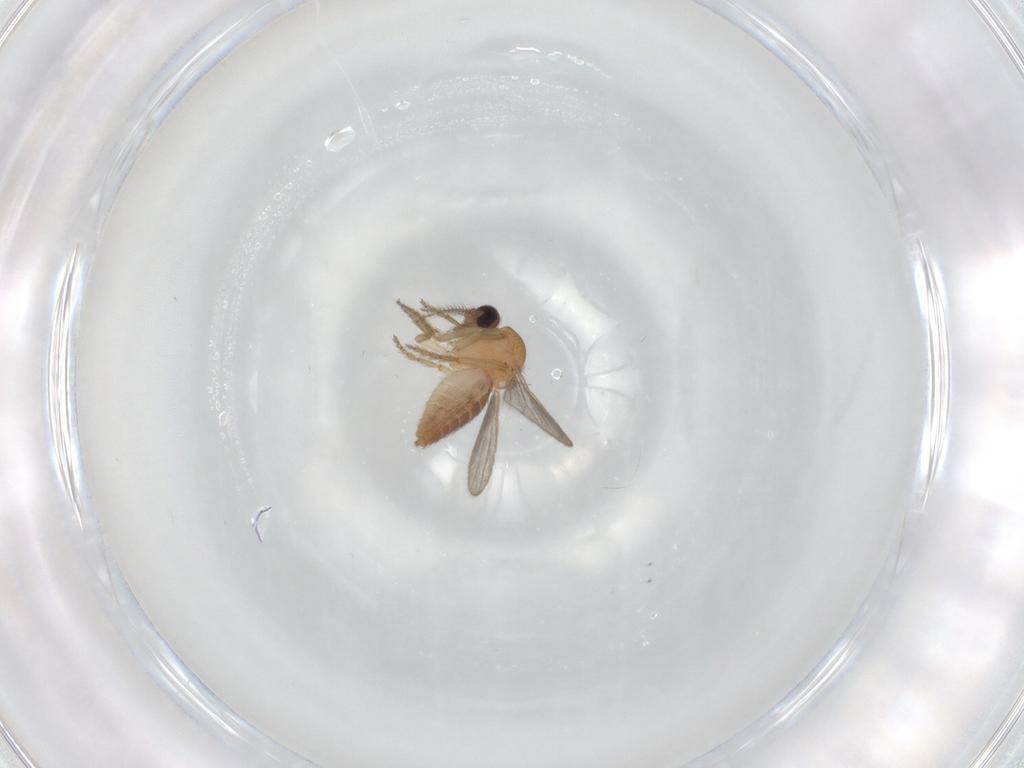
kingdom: Animalia
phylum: Arthropoda
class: Insecta
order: Diptera
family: Ceratopogonidae
